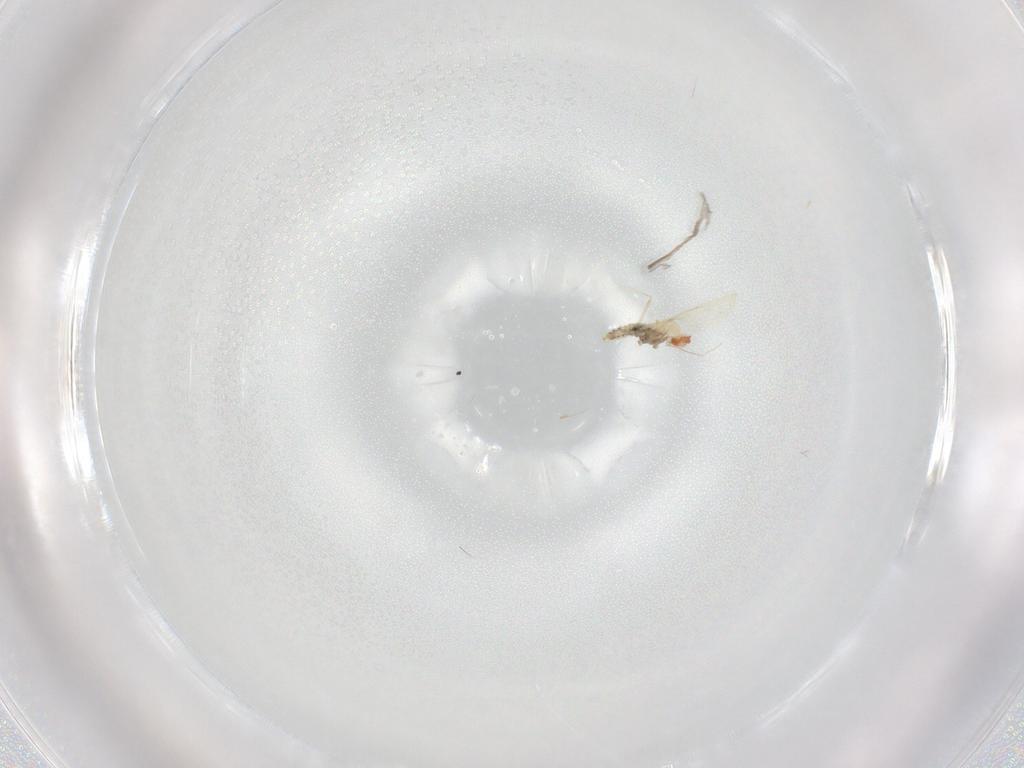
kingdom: Animalia
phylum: Arthropoda
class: Insecta
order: Diptera
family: Cecidomyiidae
